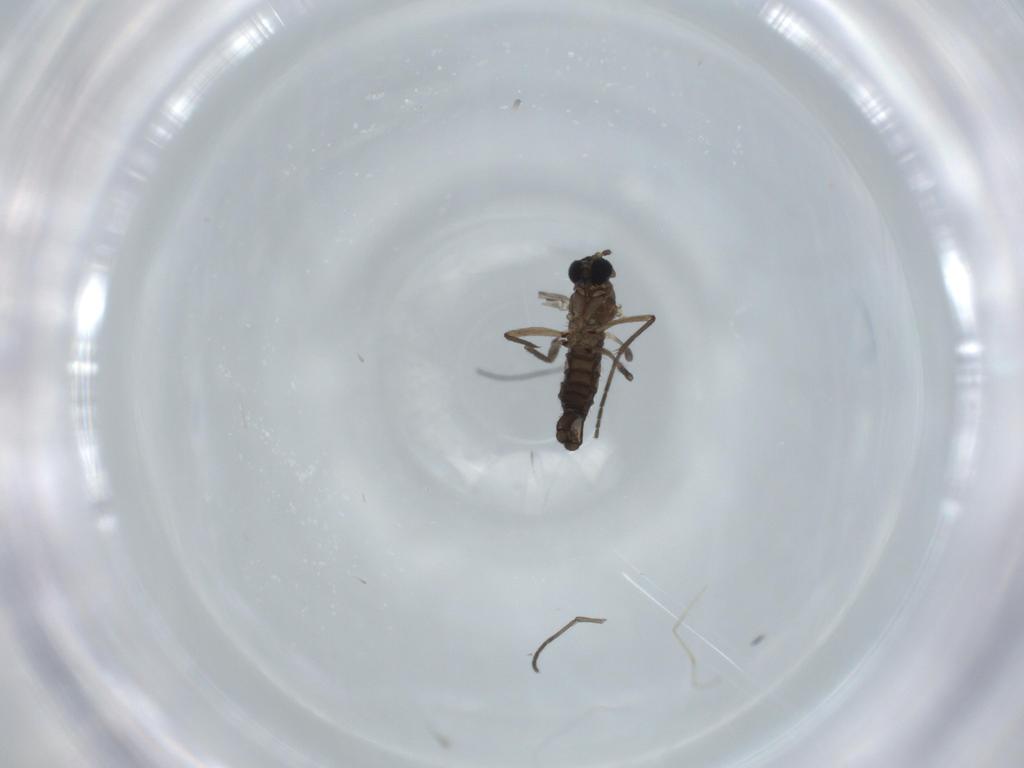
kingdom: Animalia
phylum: Arthropoda
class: Insecta
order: Diptera
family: Sciaridae
